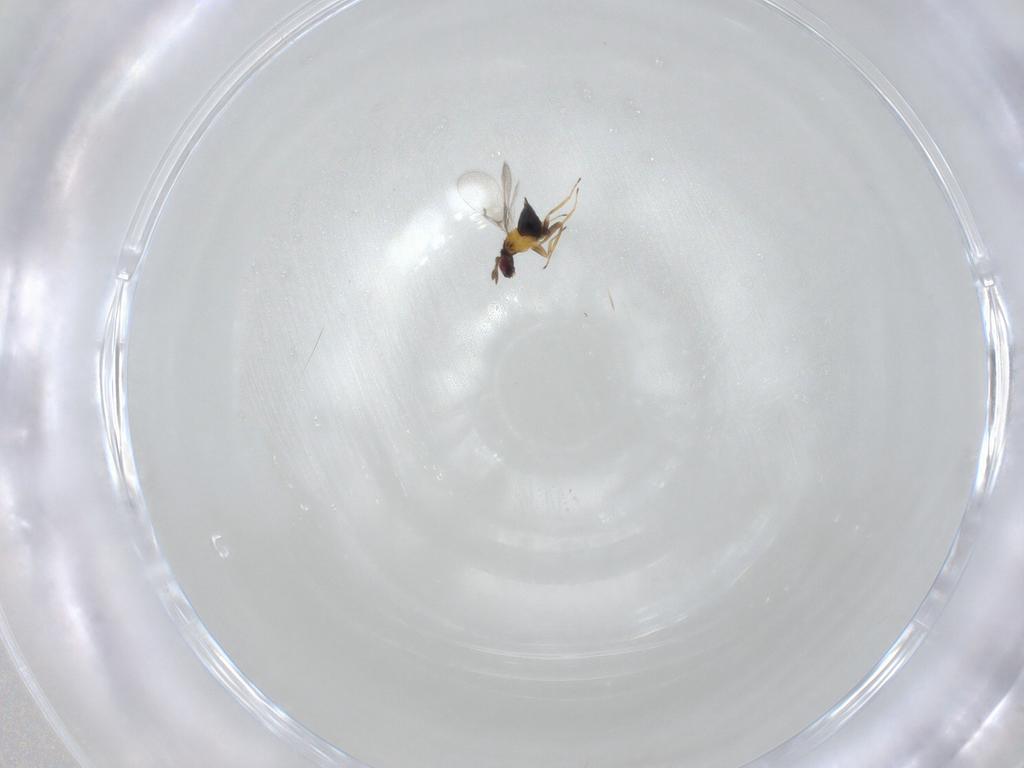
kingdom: Animalia
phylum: Arthropoda
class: Insecta
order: Hymenoptera
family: Trichogrammatidae
